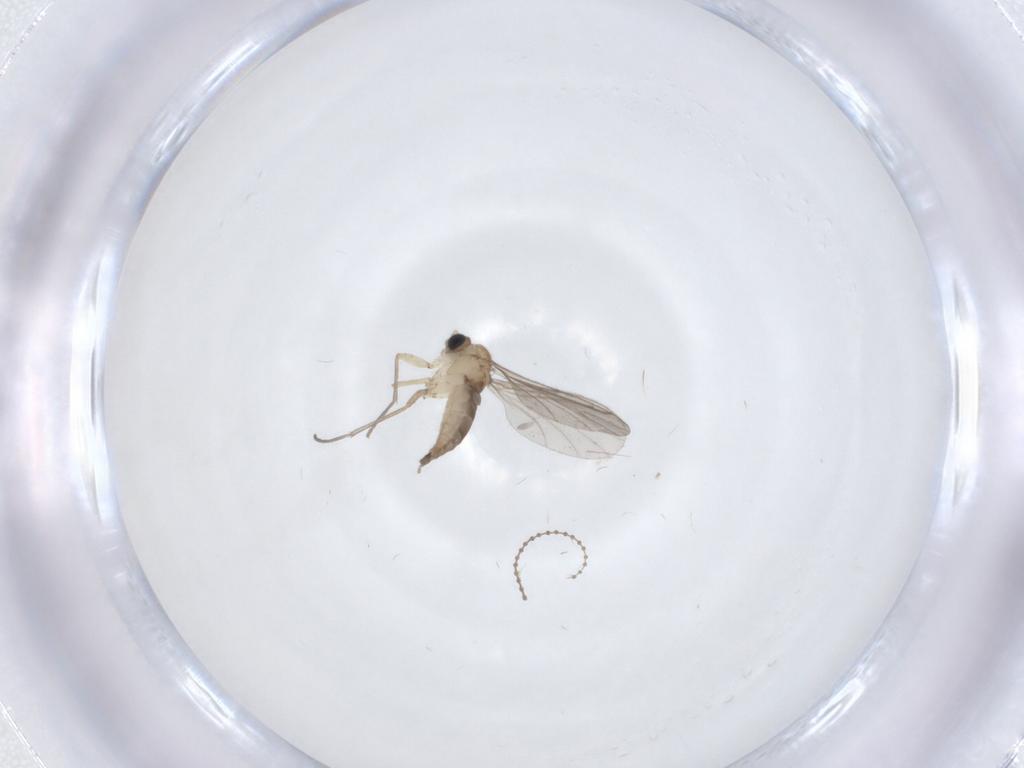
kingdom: Animalia
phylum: Arthropoda
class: Insecta
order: Diptera
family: Cecidomyiidae
